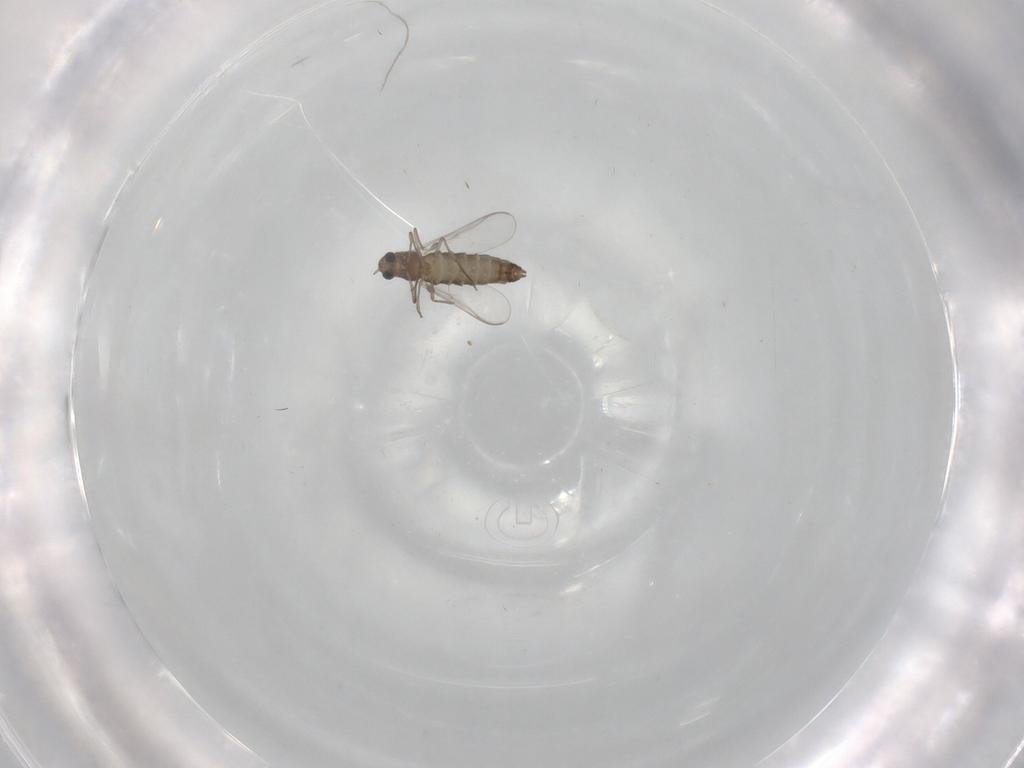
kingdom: Animalia
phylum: Arthropoda
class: Insecta
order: Diptera
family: Chironomidae
